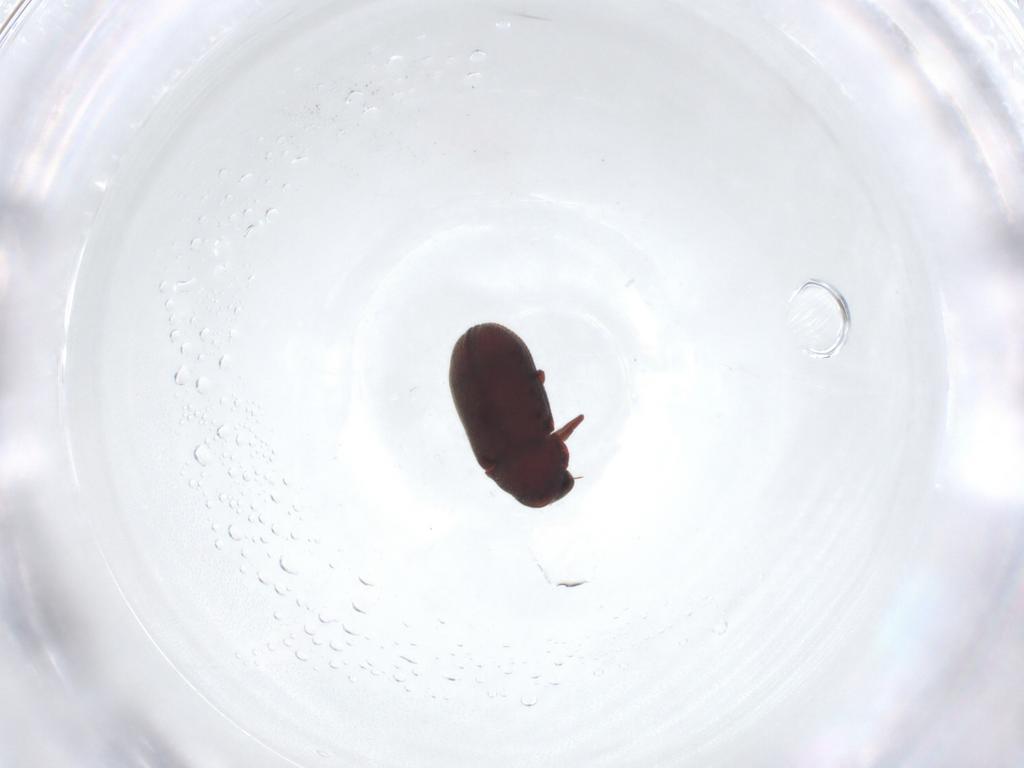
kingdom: Animalia
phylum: Arthropoda
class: Insecta
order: Coleoptera
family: Ptinidae
